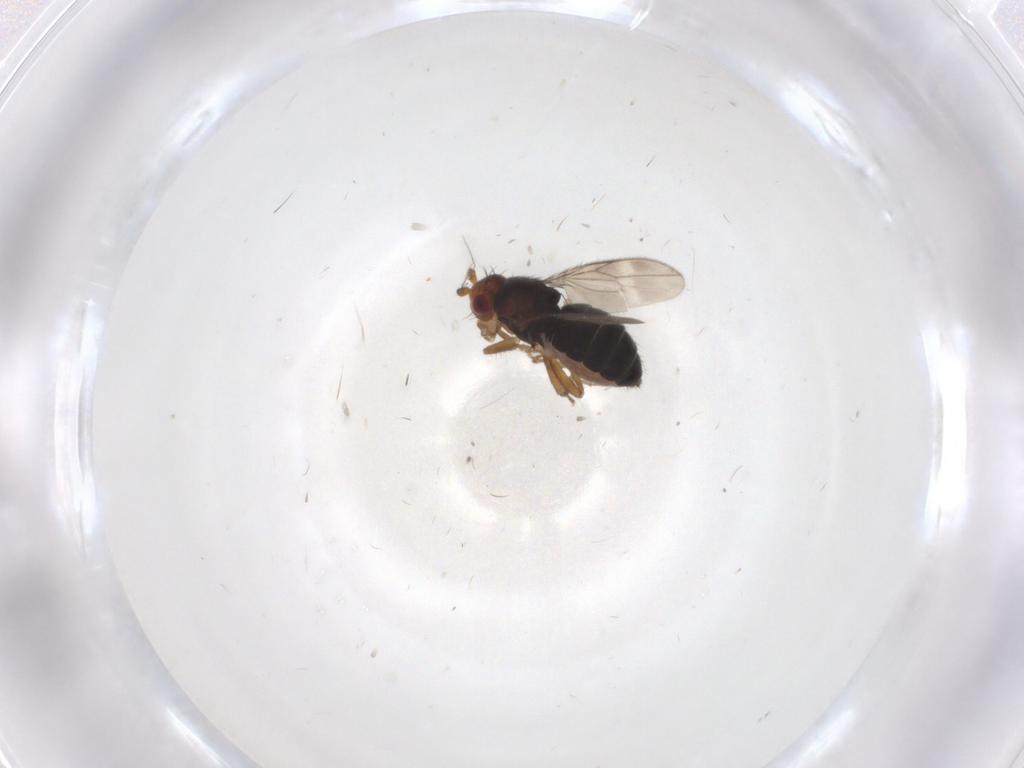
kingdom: Animalia
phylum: Arthropoda
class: Insecta
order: Diptera
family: Sphaeroceridae
